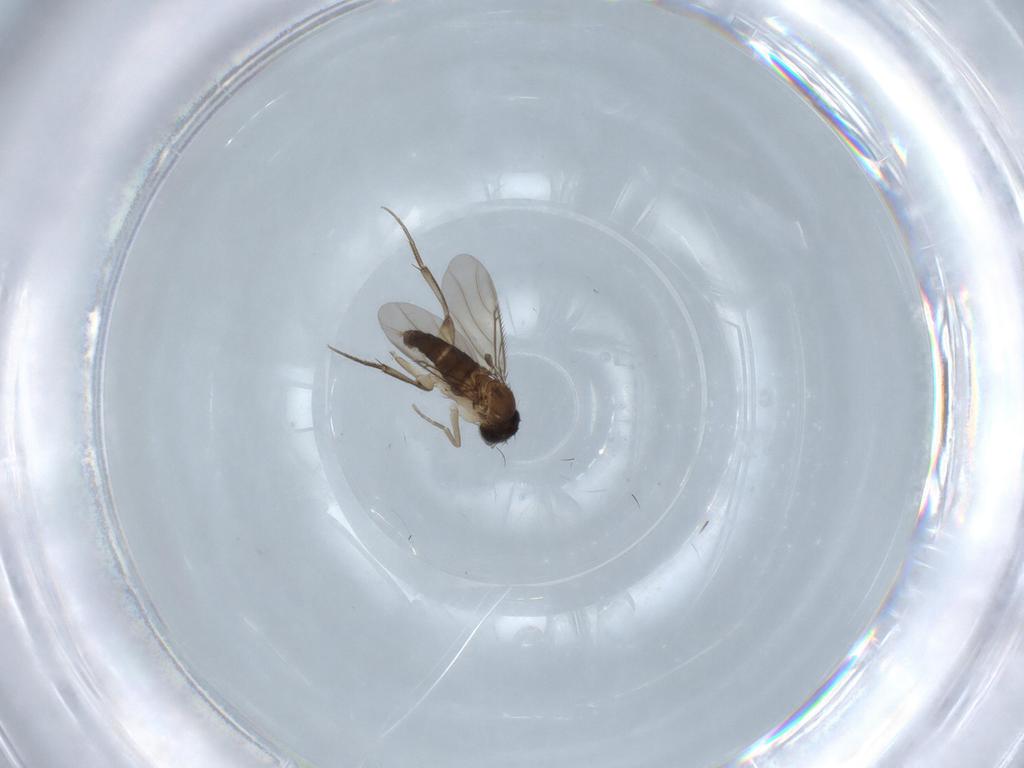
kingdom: Animalia
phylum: Arthropoda
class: Insecta
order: Diptera
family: Phoridae
